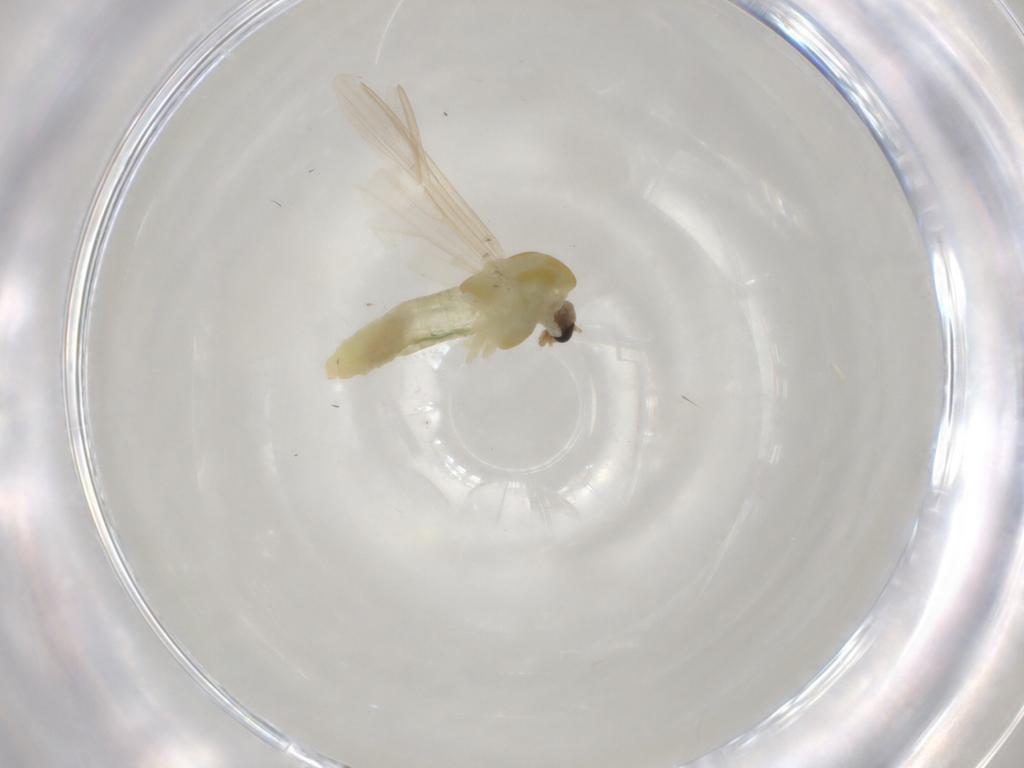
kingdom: Animalia
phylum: Arthropoda
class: Insecta
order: Diptera
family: Chironomidae
